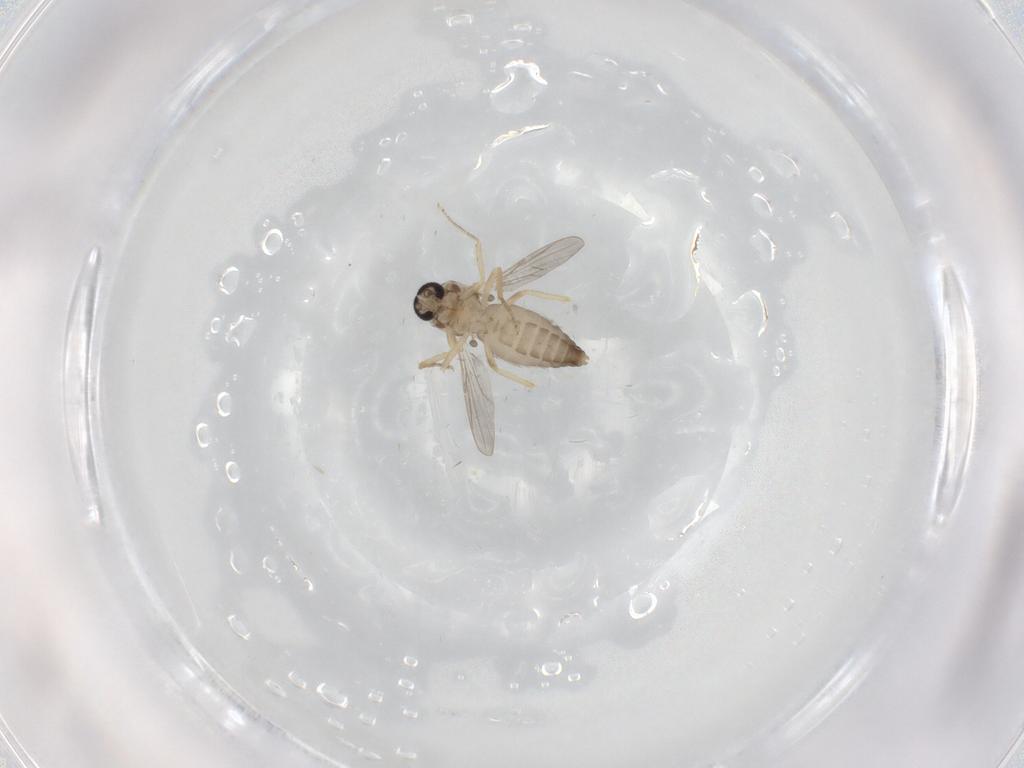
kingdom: Animalia
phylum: Arthropoda
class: Insecta
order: Diptera
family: Ceratopogonidae
